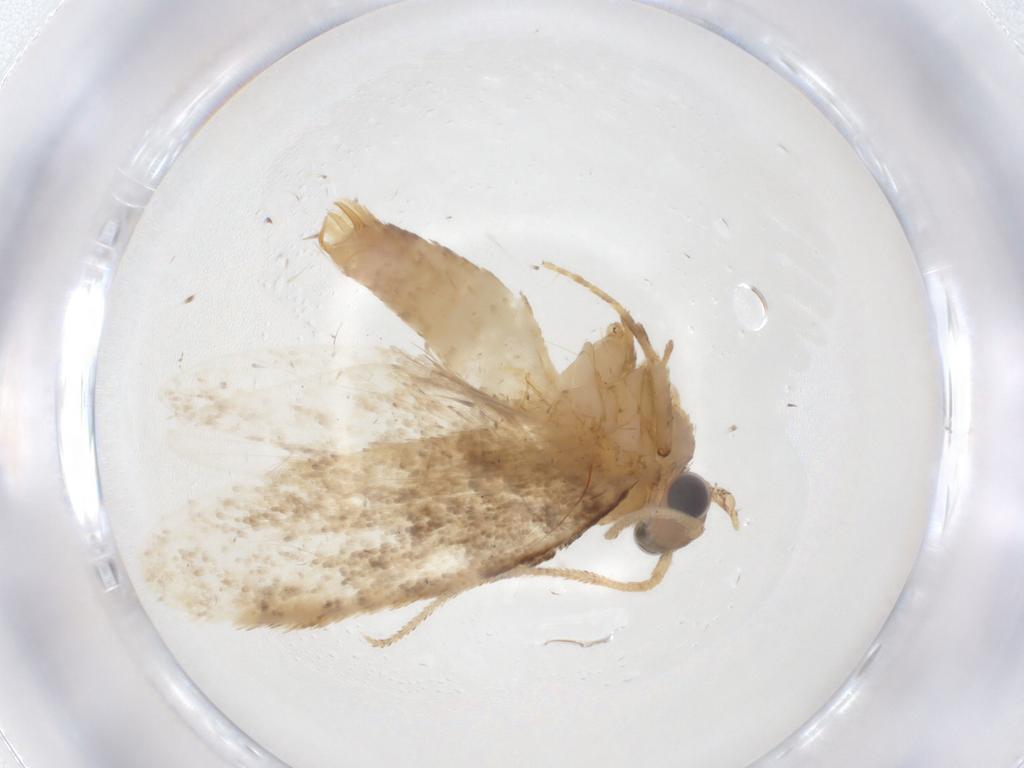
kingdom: Animalia
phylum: Arthropoda
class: Insecta
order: Lepidoptera
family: Tineidae
